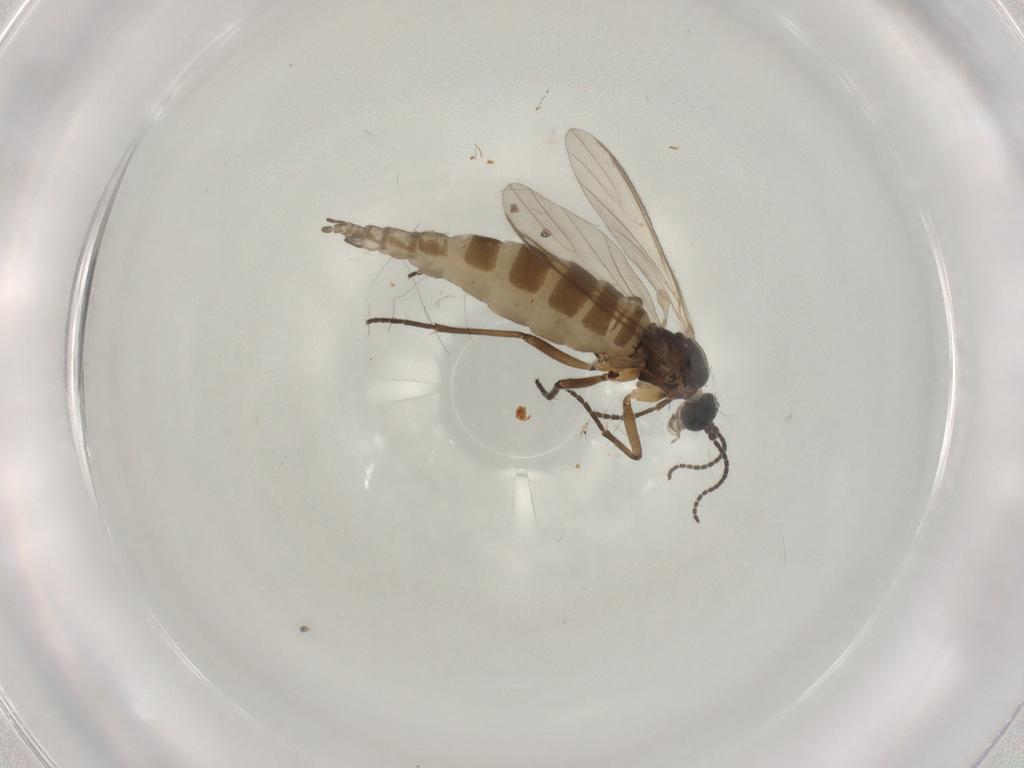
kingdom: Animalia
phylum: Arthropoda
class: Insecta
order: Diptera
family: Sciaridae
